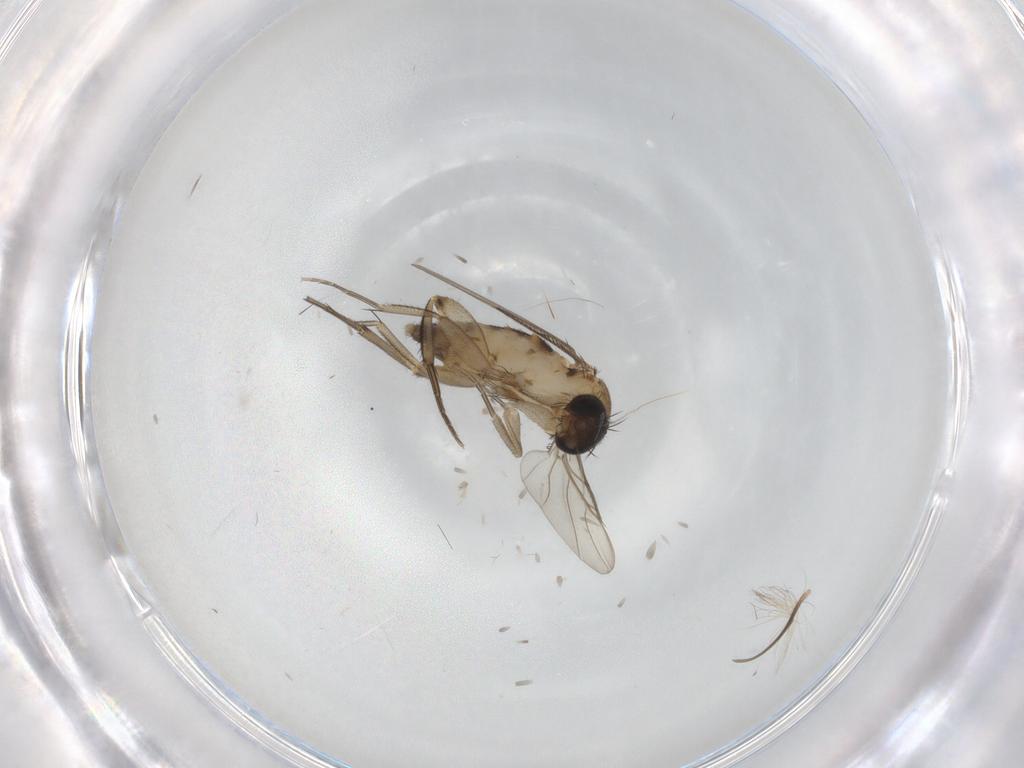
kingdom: Animalia
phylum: Arthropoda
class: Insecta
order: Diptera
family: Phoridae
